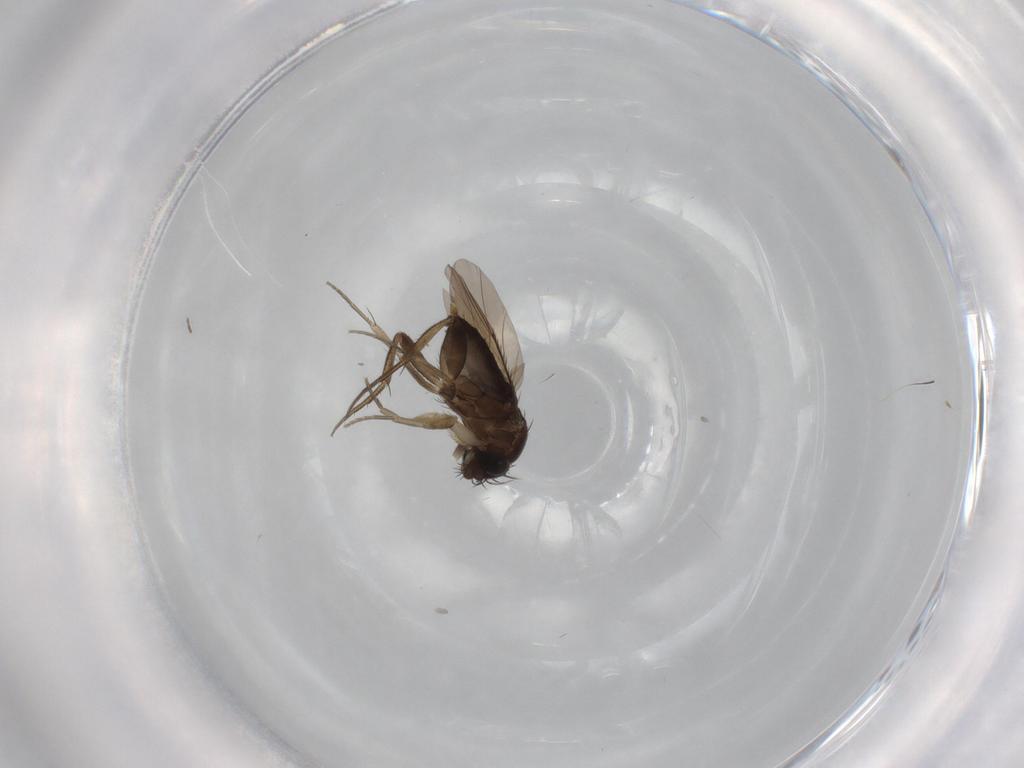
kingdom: Animalia
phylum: Arthropoda
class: Insecta
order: Diptera
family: Phoridae
